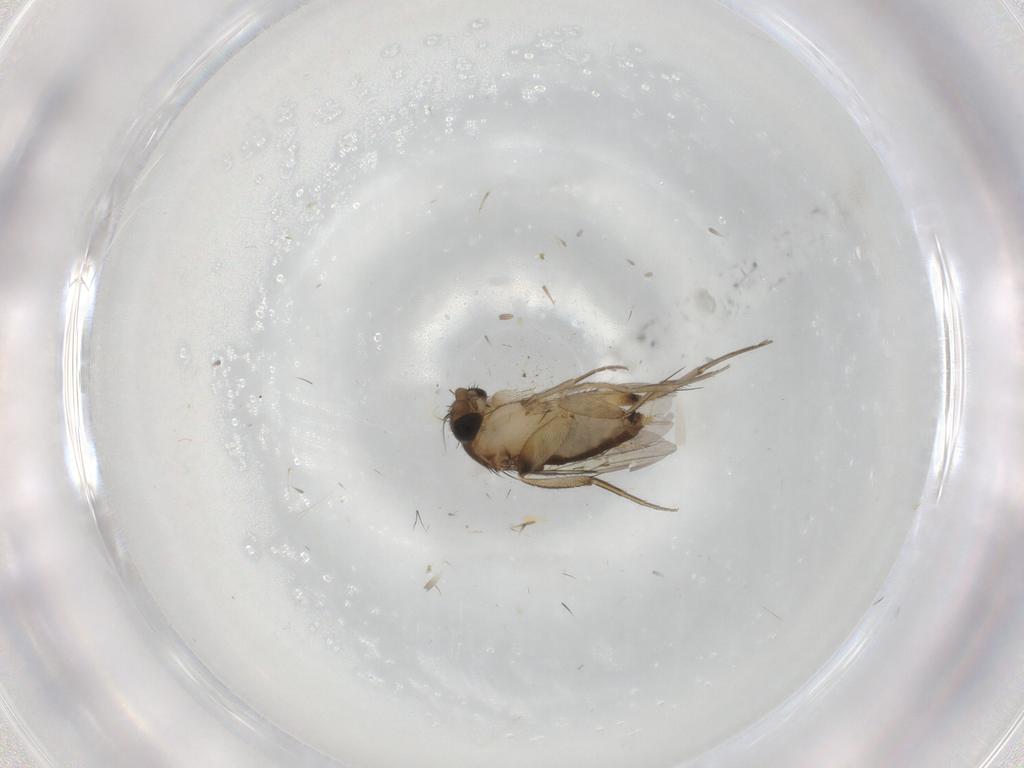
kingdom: Animalia
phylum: Arthropoda
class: Insecta
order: Diptera
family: Phoridae
